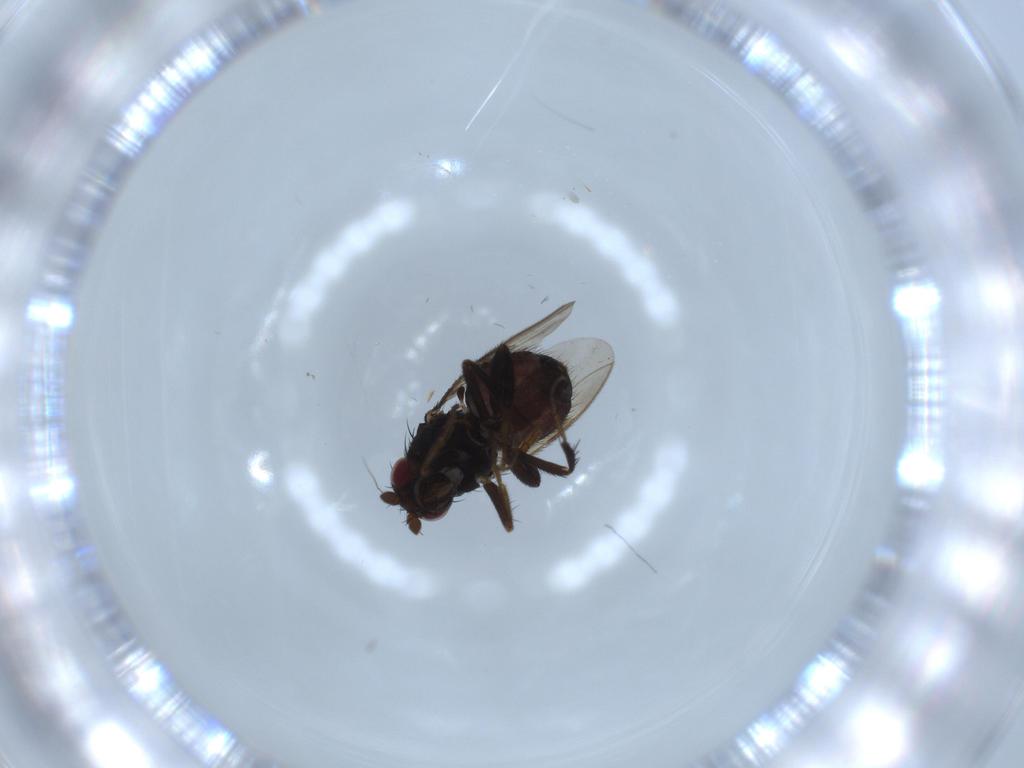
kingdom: Animalia
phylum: Arthropoda
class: Insecta
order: Diptera
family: Sphaeroceridae
